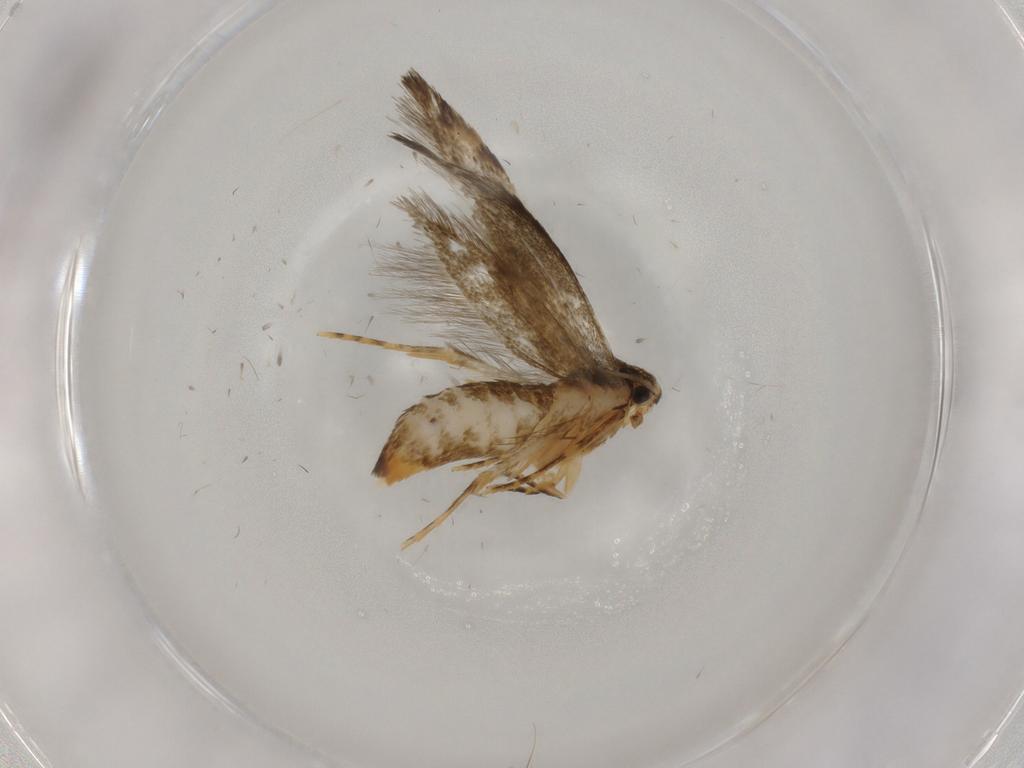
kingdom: Animalia
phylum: Arthropoda
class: Insecta
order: Lepidoptera
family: Tineidae
